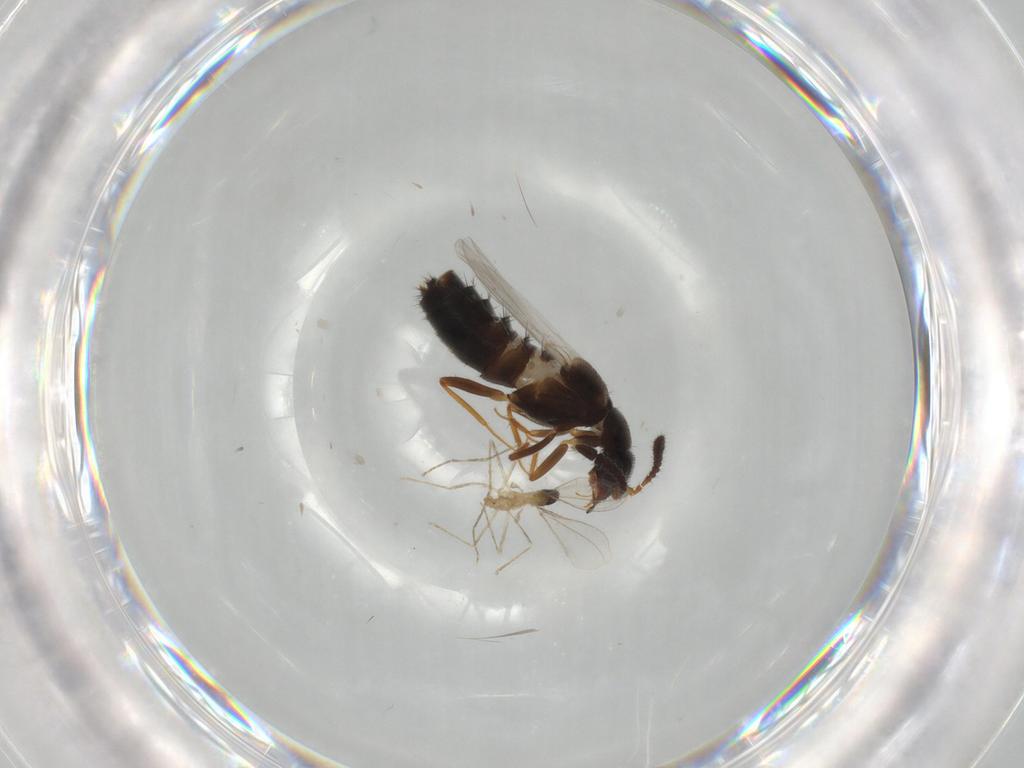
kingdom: Animalia
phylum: Arthropoda
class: Insecta
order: Coleoptera
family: Staphylinidae
